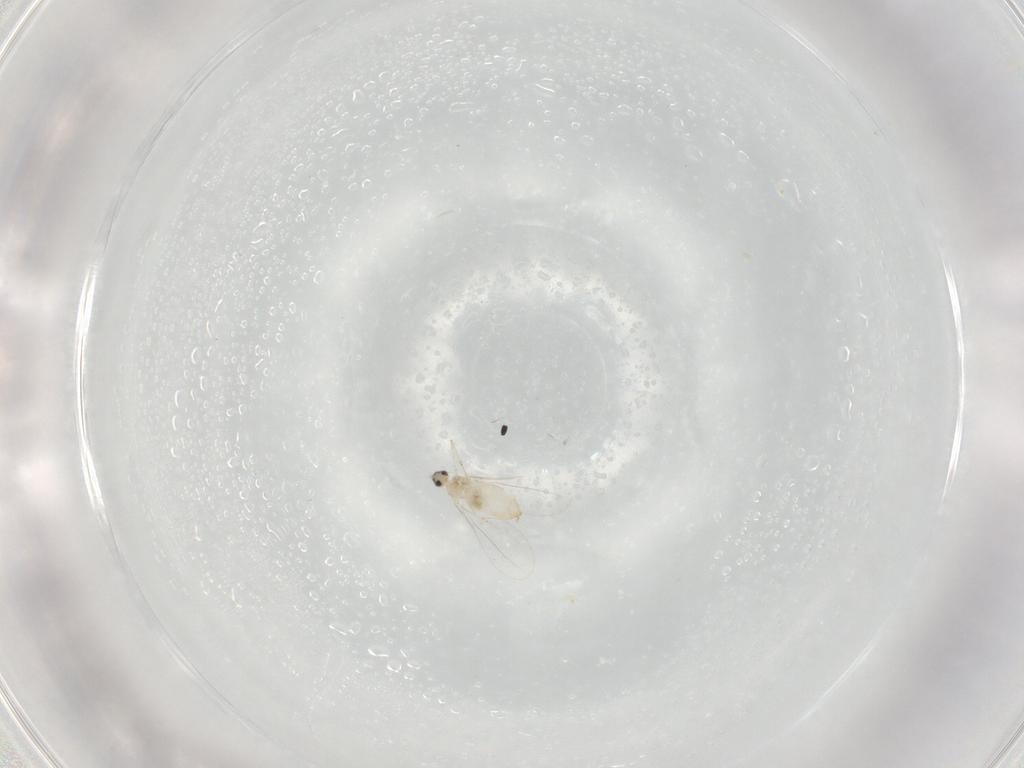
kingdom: Animalia
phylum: Arthropoda
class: Insecta
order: Diptera
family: Cecidomyiidae
